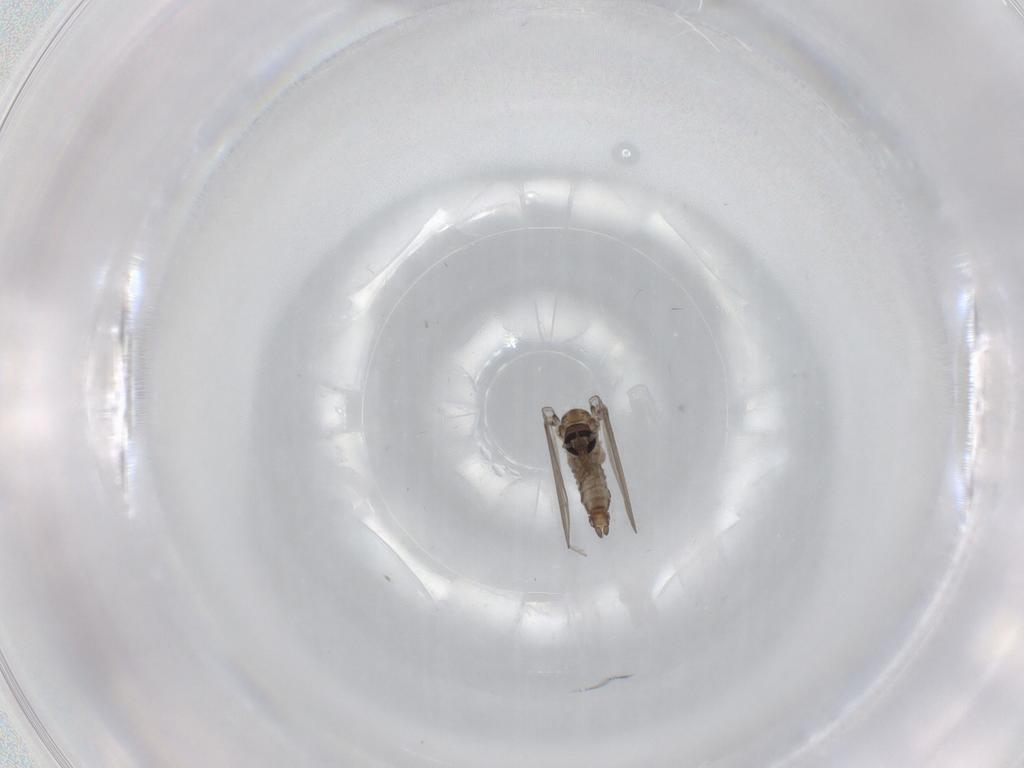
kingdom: Animalia
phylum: Arthropoda
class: Insecta
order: Diptera
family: Psychodidae
